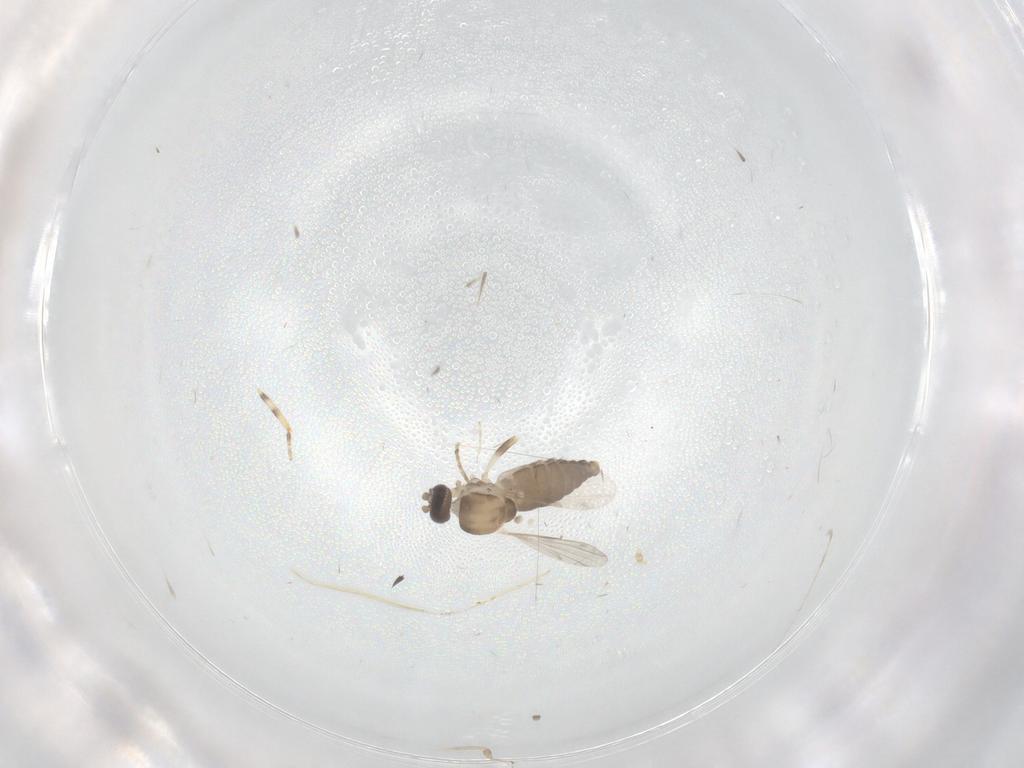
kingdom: Animalia
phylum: Arthropoda
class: Insecta
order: Diptera
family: Ceratopogonidae
